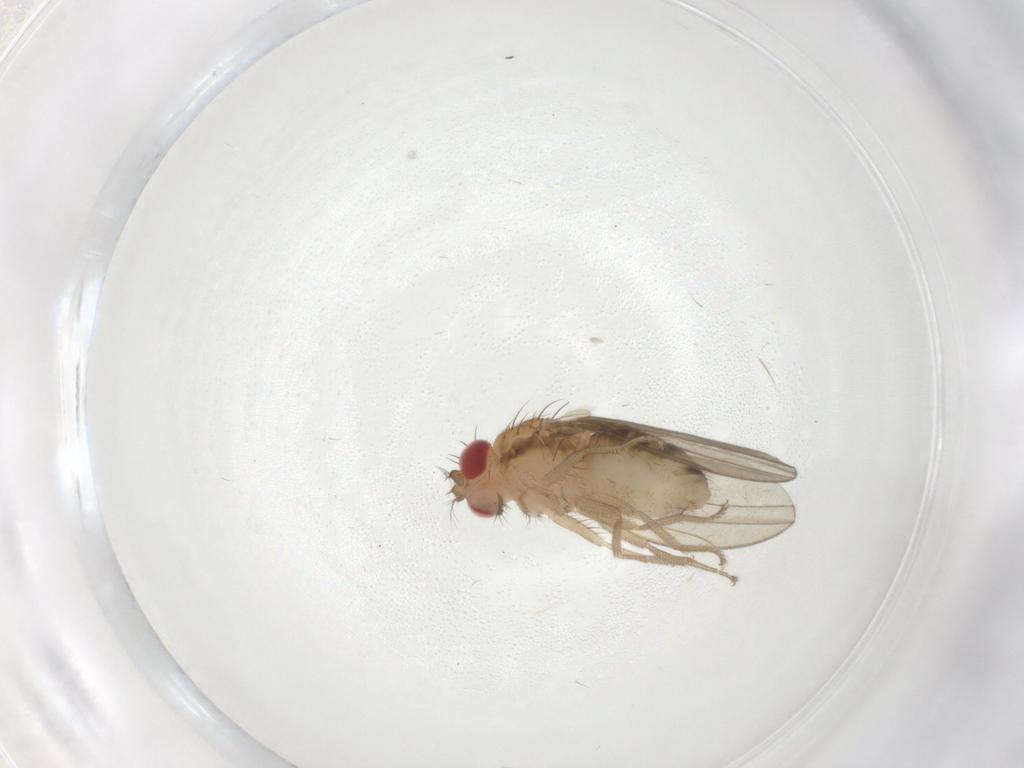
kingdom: Animalia
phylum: Arthropoda
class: Insecta
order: Diptera
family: Drosophilidae
